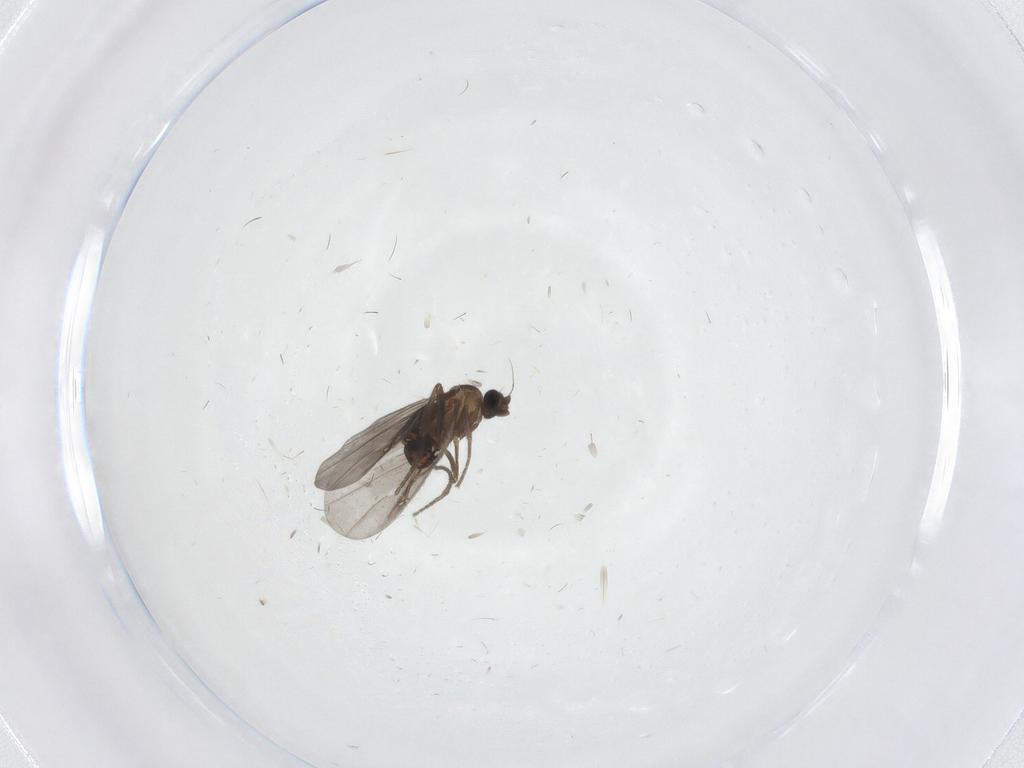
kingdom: Animalia
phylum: Arthropoda
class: Insecta
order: Diptera
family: Phoridae
